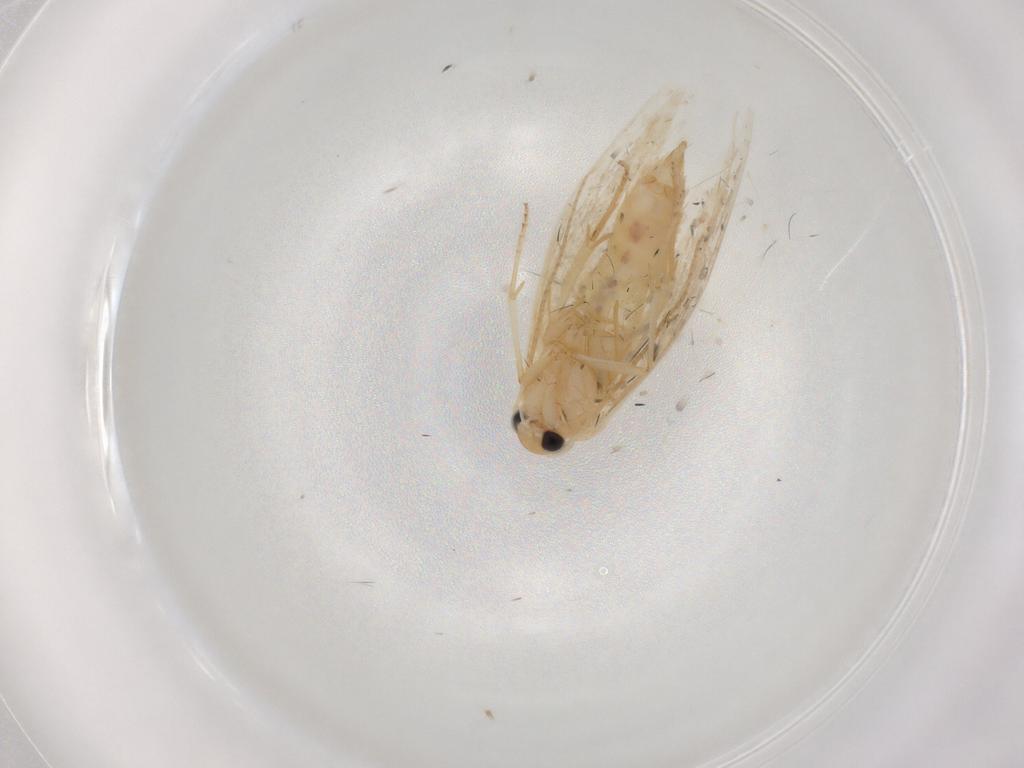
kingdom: Animalia
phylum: Arthropoda
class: Insecta
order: Lepidoptera
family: Bucculatricidae
